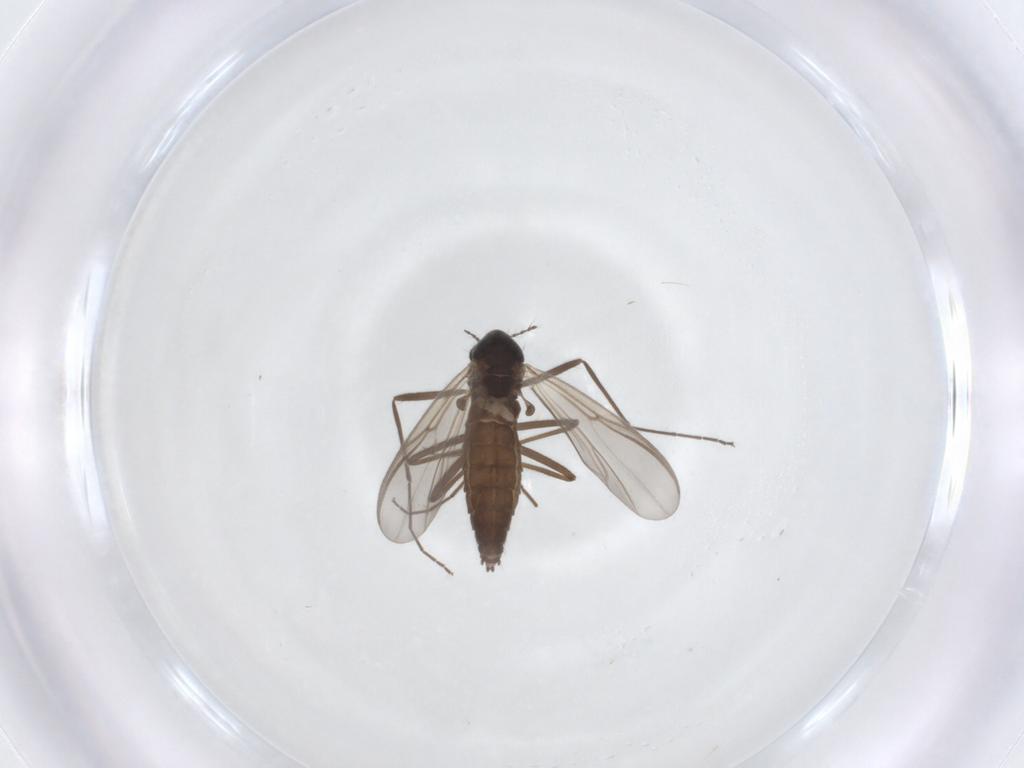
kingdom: Animalia
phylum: Arthropoda
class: Insecta
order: Diptera
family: Chironomidae
